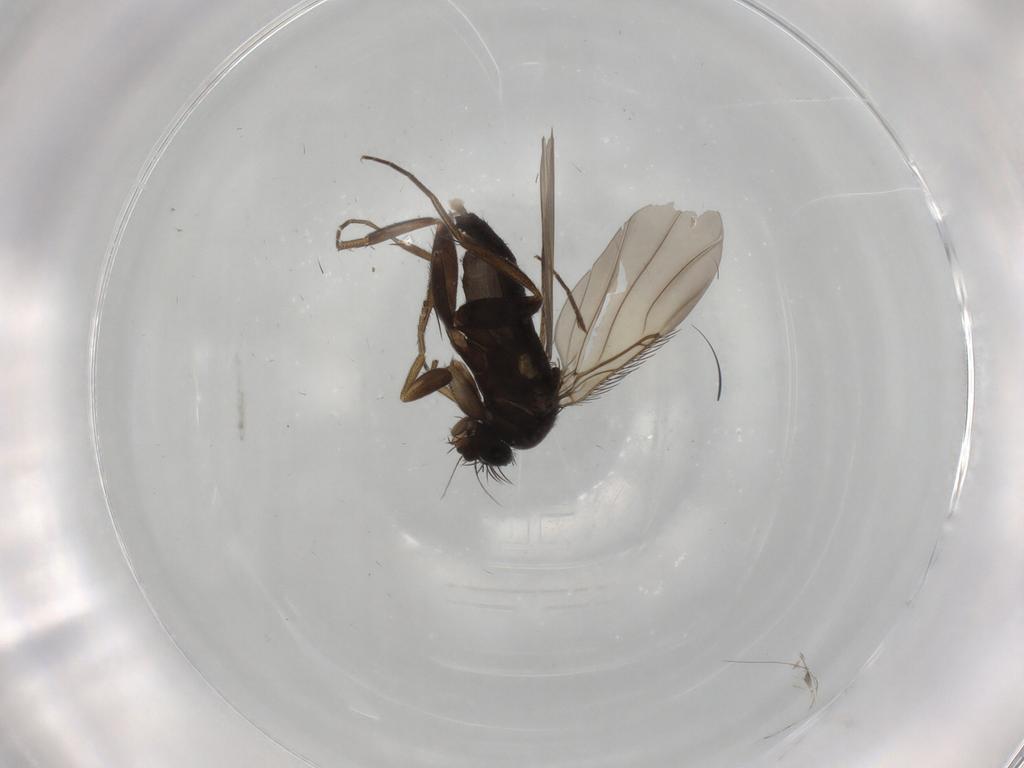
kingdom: Animalia
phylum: Arthropoda
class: Insecta
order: Diptera
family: Phoridae
